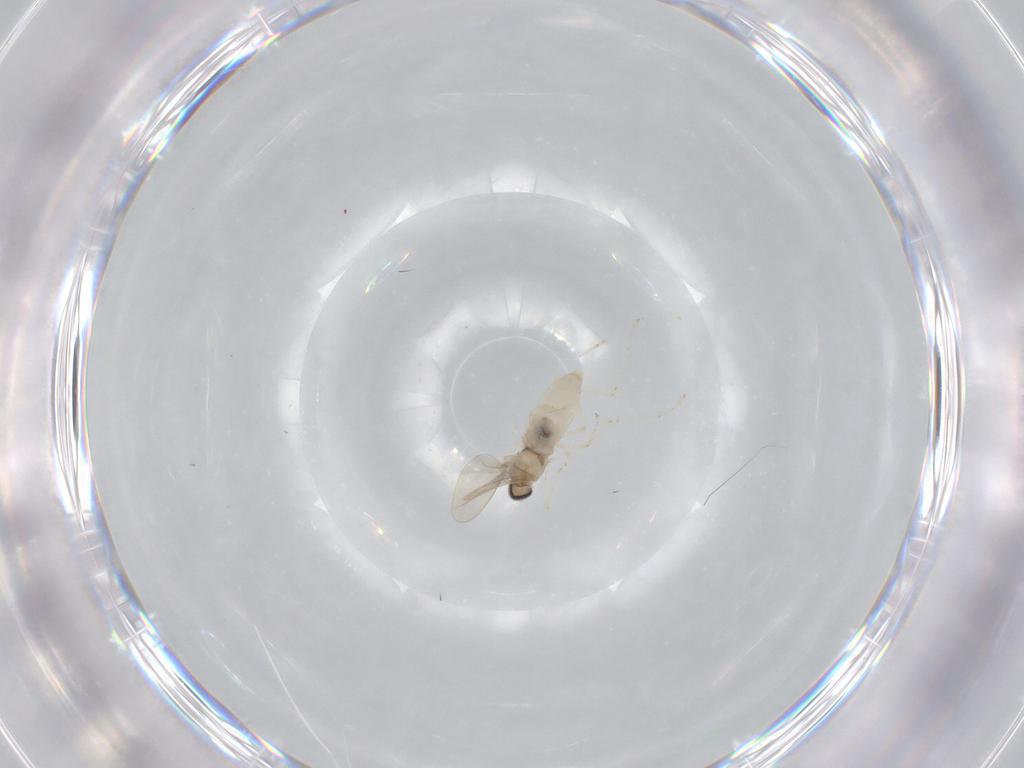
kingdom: Animalia
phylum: Arthropoda
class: Insecta
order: Diptera
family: Cecidomyiidae
